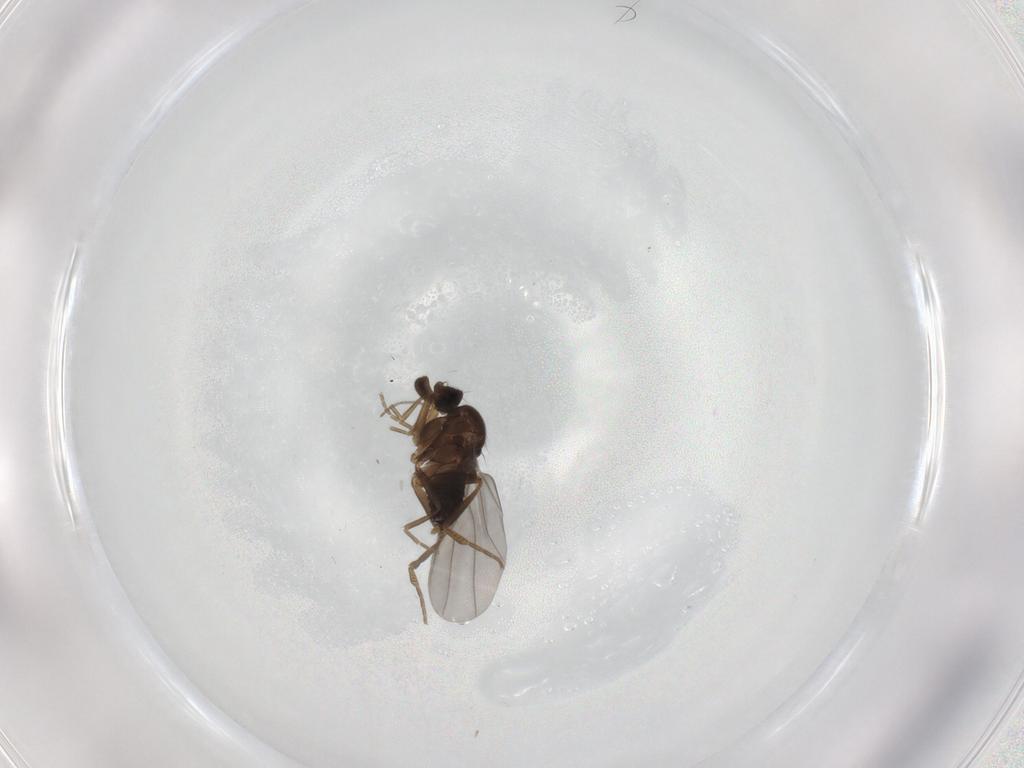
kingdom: Animalia
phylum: Arthropoda
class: Insecta
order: Diptera
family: Chironomidae
